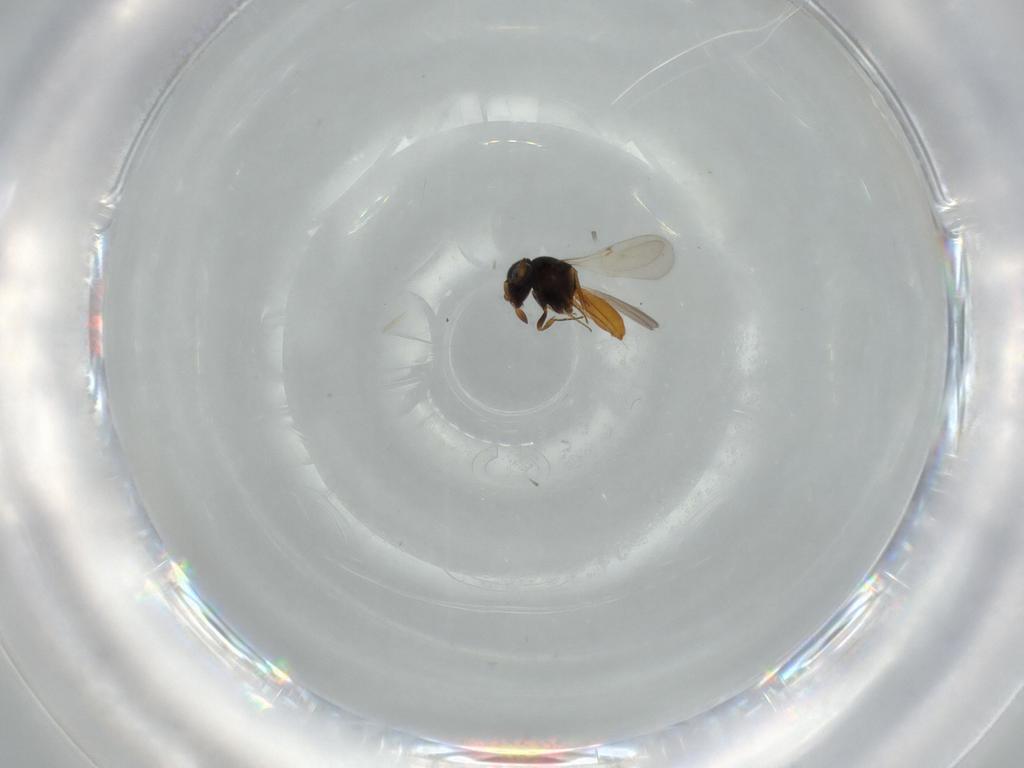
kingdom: Animalia
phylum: Arthropoda
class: Insecta
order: Hymenoptera
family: Scelionidae
